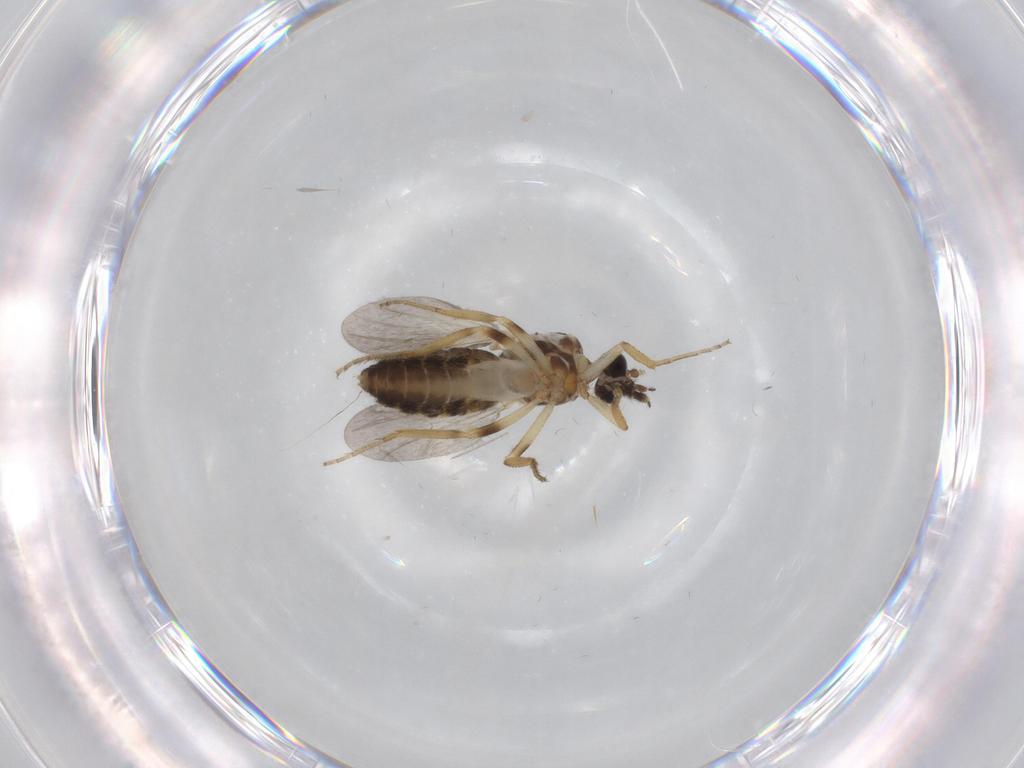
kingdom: Animalia
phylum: Arthropoda
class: Insecta
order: Diptera
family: Ceratopogonidae
